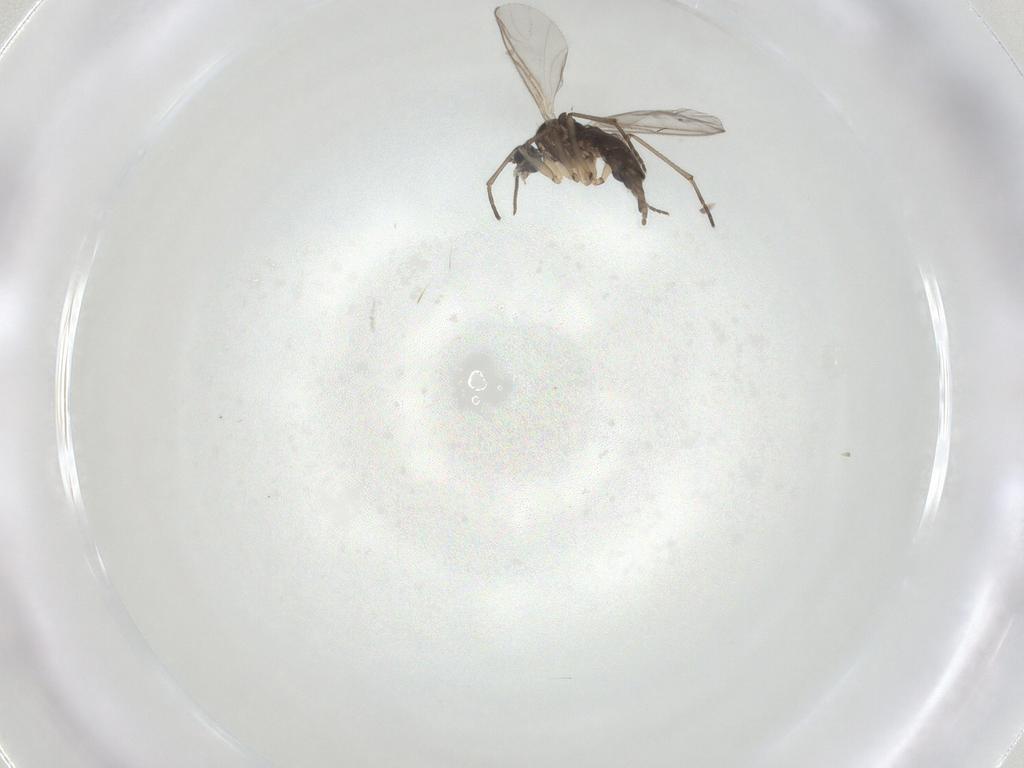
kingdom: Animalia
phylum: Arthropoda
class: Insecta
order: Diptera
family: Sciaridae
